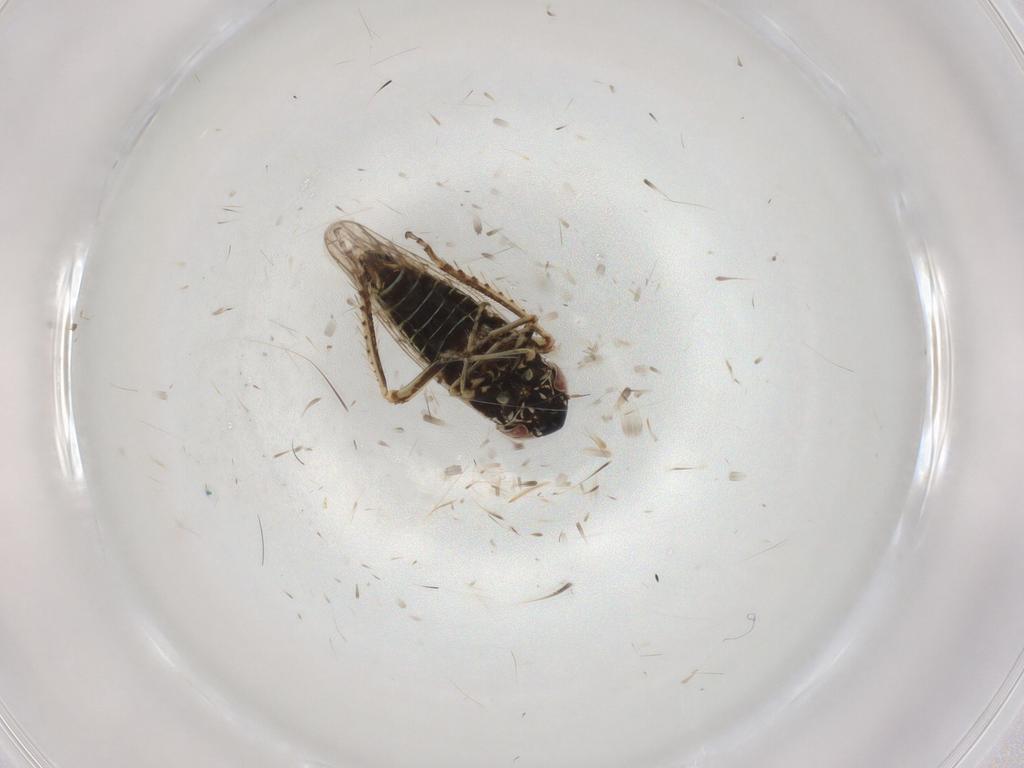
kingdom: Animalia
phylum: Arthropoda
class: Insecta
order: Hemiptera
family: Cicadellidae
